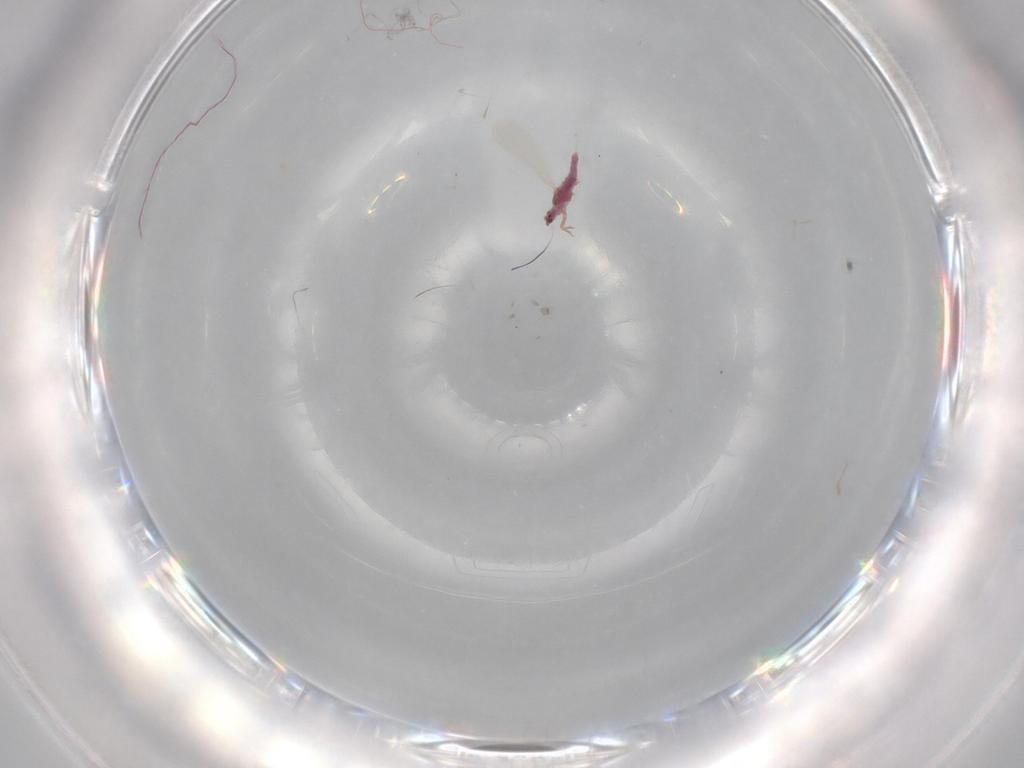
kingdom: Animalia
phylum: Arthropoda
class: Insecta
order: Hemiptera
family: Pseudococcidae
